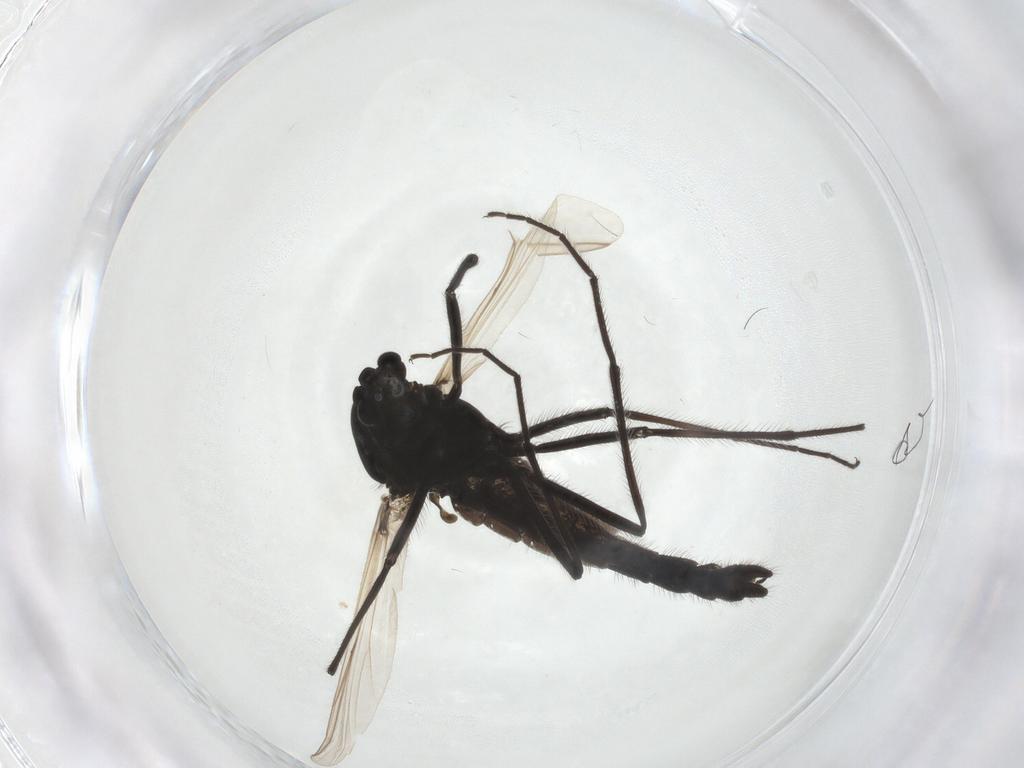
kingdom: Animalia
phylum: Arthropoda
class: Insecta
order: Diptera
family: Chironomidae
